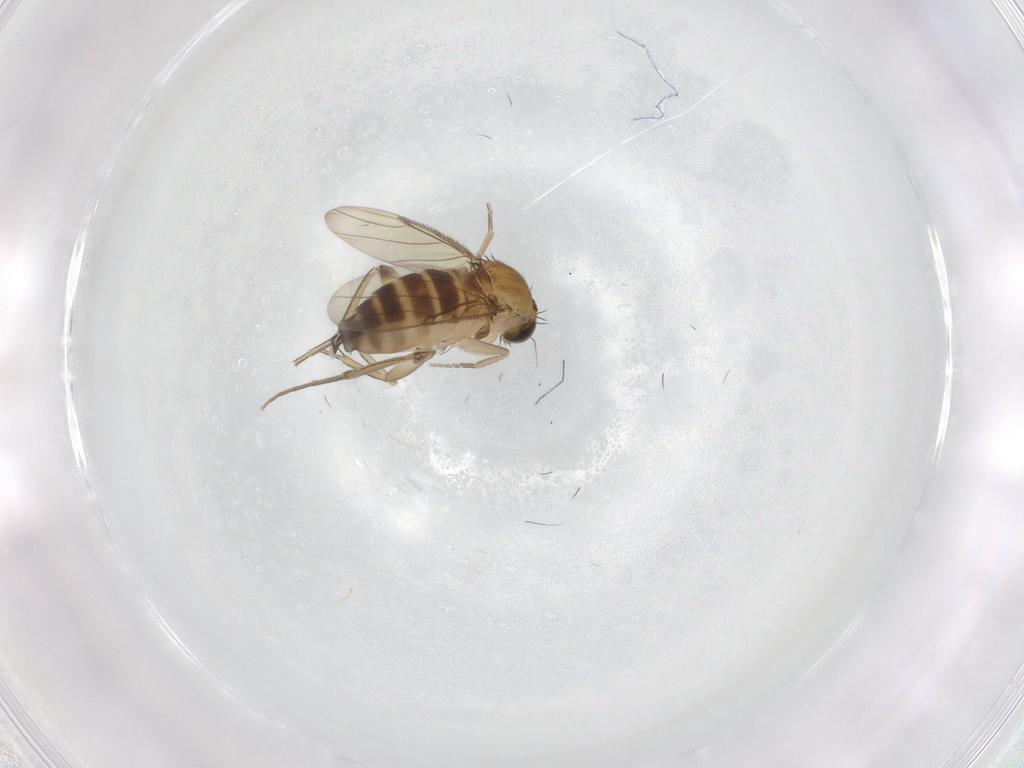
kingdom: Animalia
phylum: Arthropoda
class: Insecta
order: Diptera
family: Phoridae
